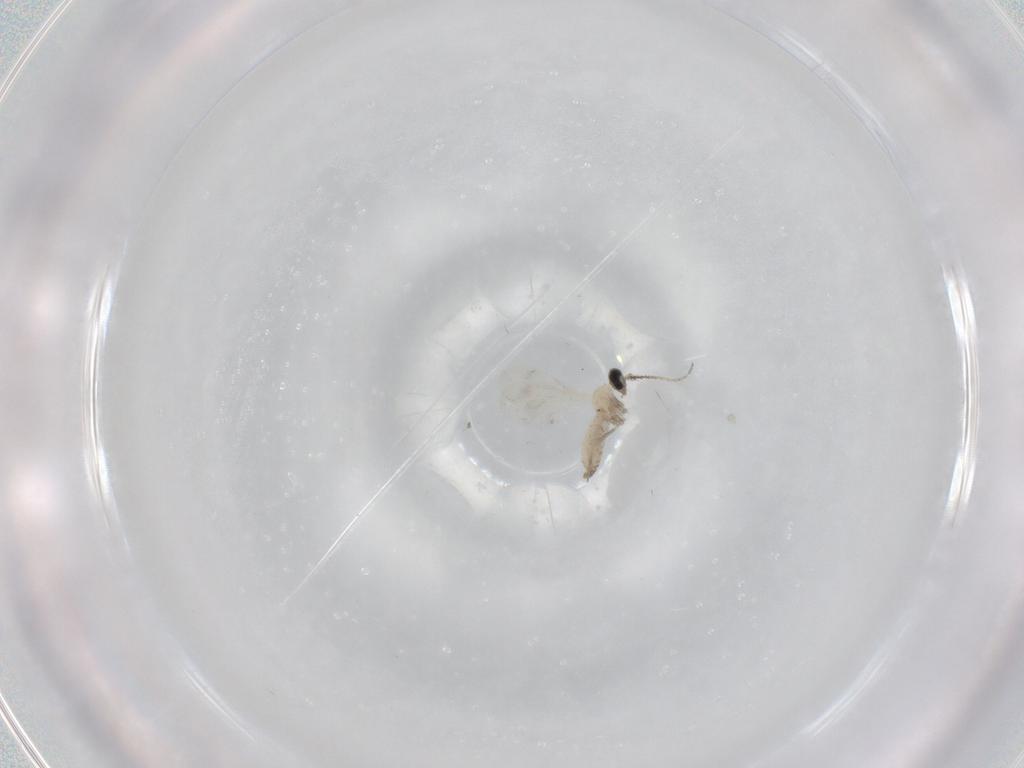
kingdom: Animalia
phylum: Arthropoda
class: Insecta
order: Diptera
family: Cecidomyiidae
